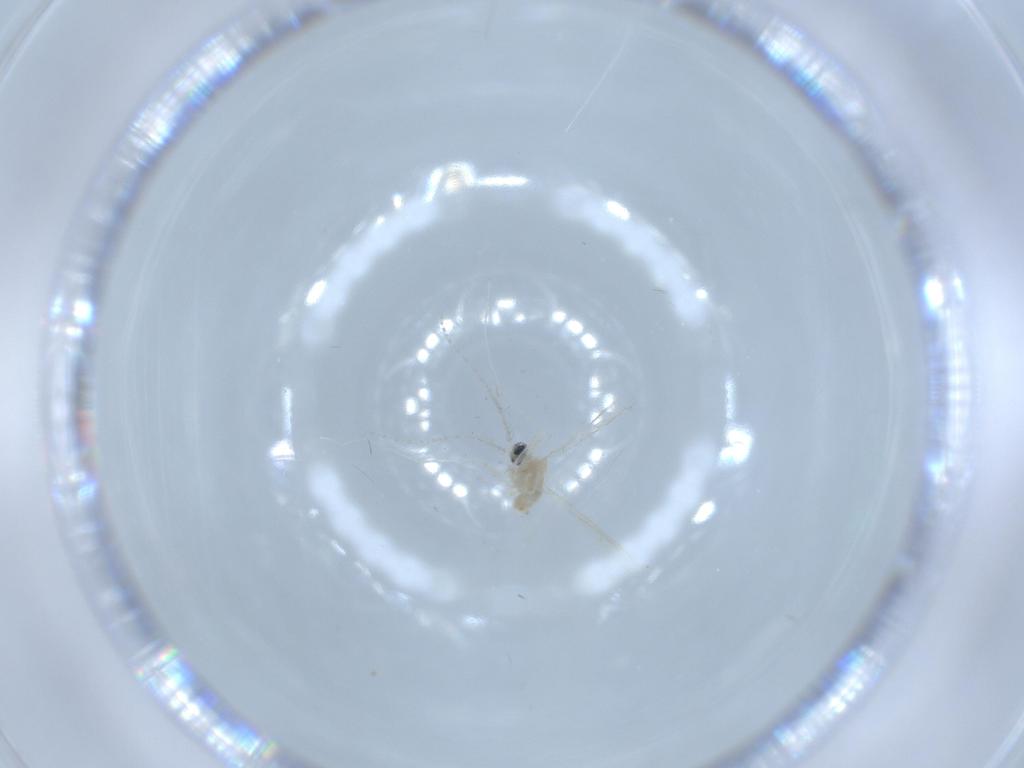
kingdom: Animalia
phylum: Arthropoda
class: Insecta
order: Diptera
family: Cecidomyiidae
